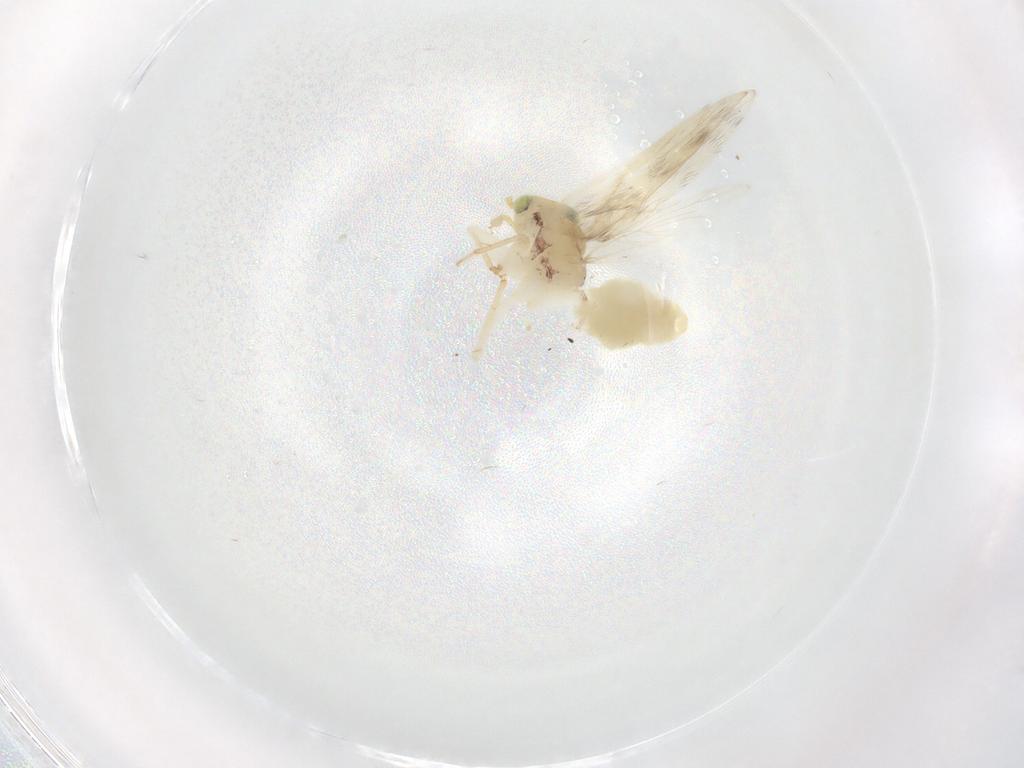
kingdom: Animalia
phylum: Arthropoda
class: Insecta
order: Psocodea
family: Lepidopsocidae
